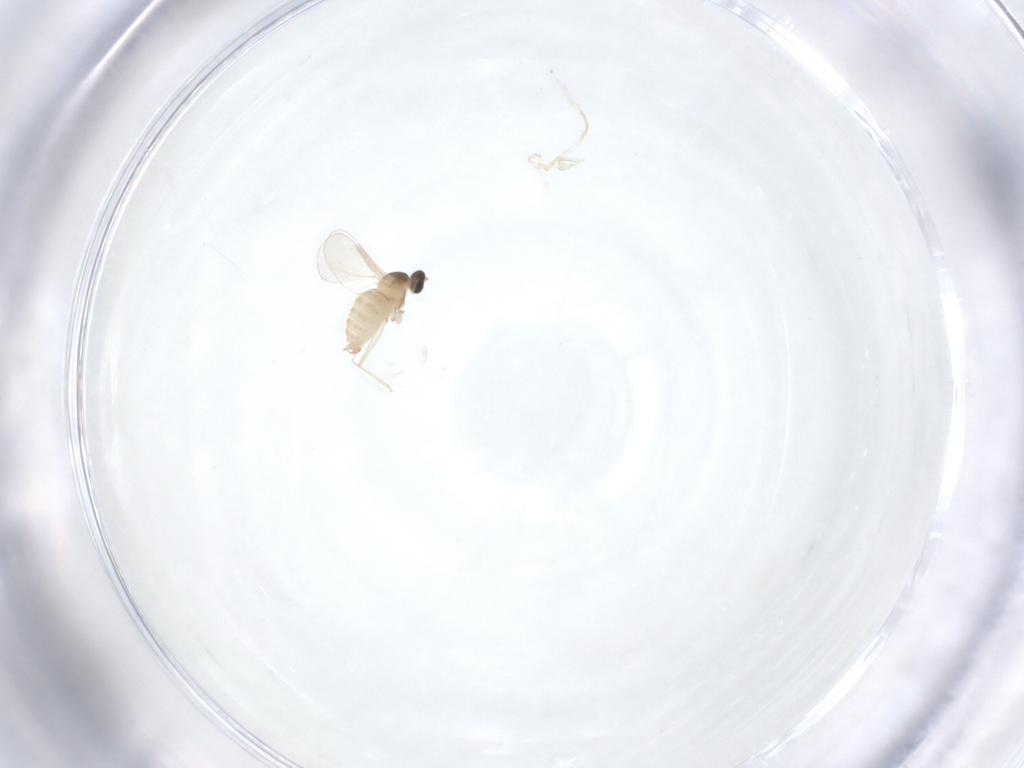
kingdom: Animalia
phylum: Arthropoda
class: Insecta
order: Diptera
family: Cecidomyiidae
